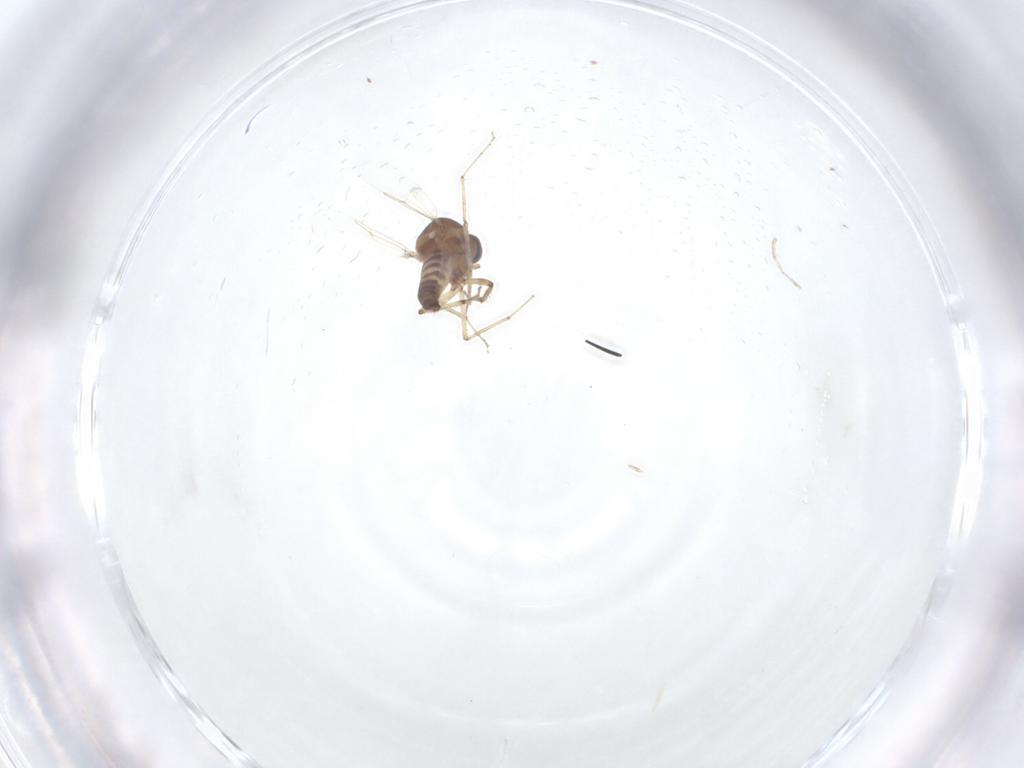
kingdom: Animalia
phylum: Arthropoda
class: Insecta
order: Diptera
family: Ceratopogonidae
